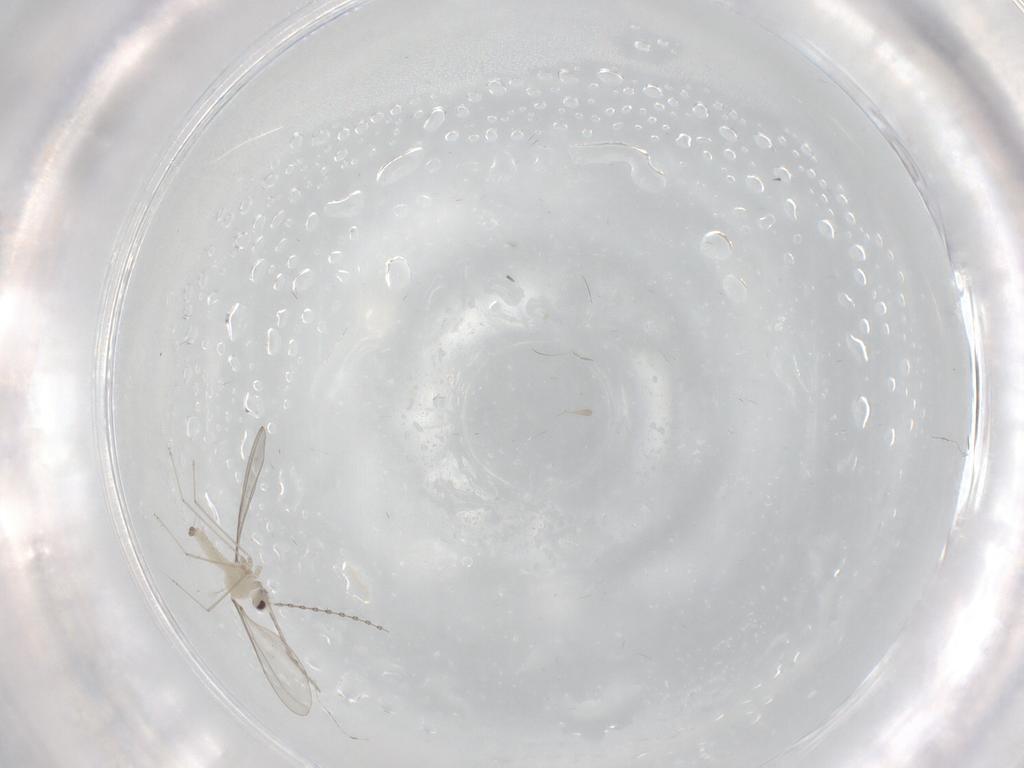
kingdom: Animalia
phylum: Arthropoda
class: Insecta
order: Diptera
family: Cecidomyiidae
